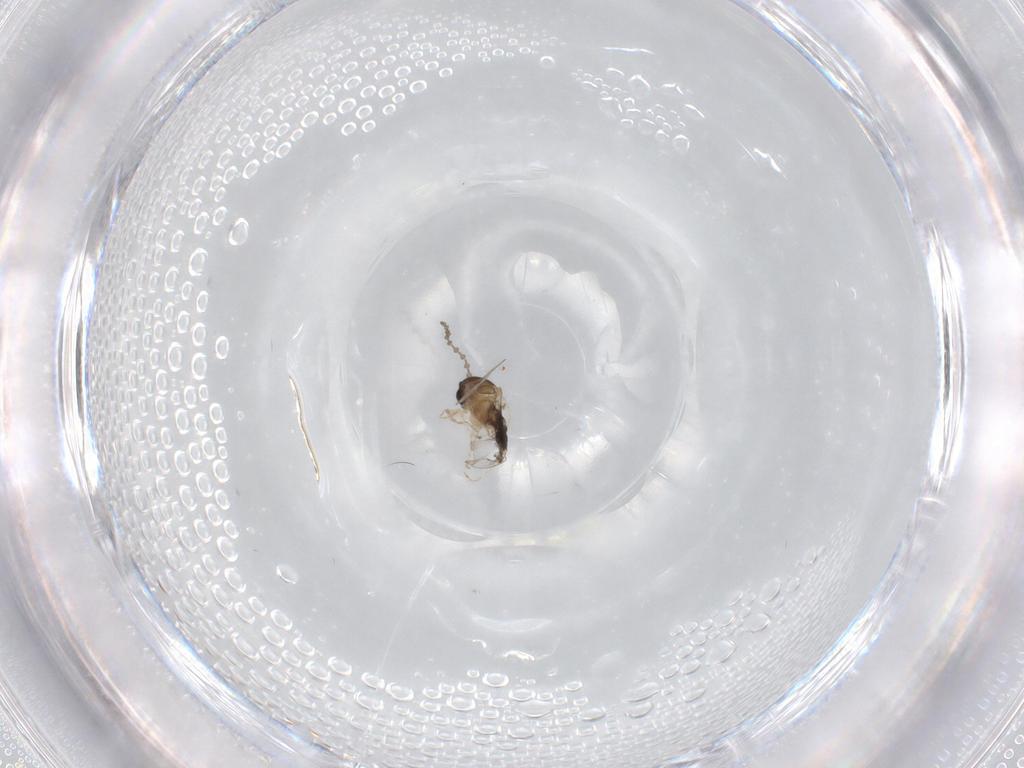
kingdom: Animalia
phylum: Arthropoda
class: Insecta
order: Diptera
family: Cecidomyiidae
